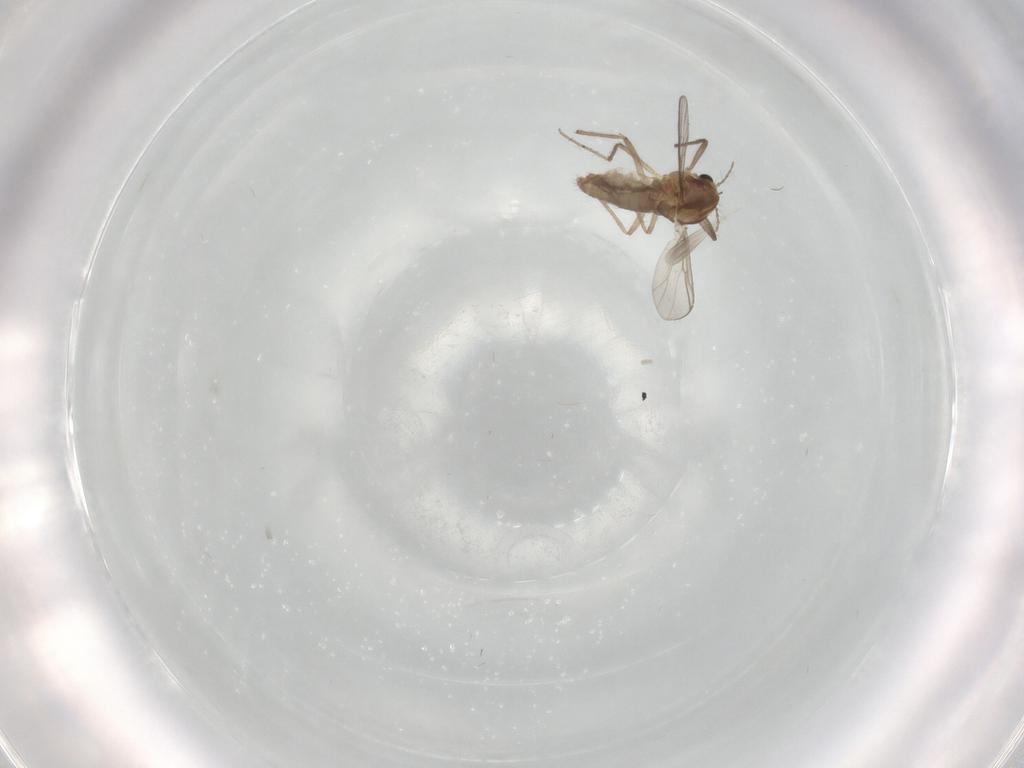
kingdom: Animalia
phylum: Arthropoda
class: Insecta
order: Diptera
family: Chironomidae
